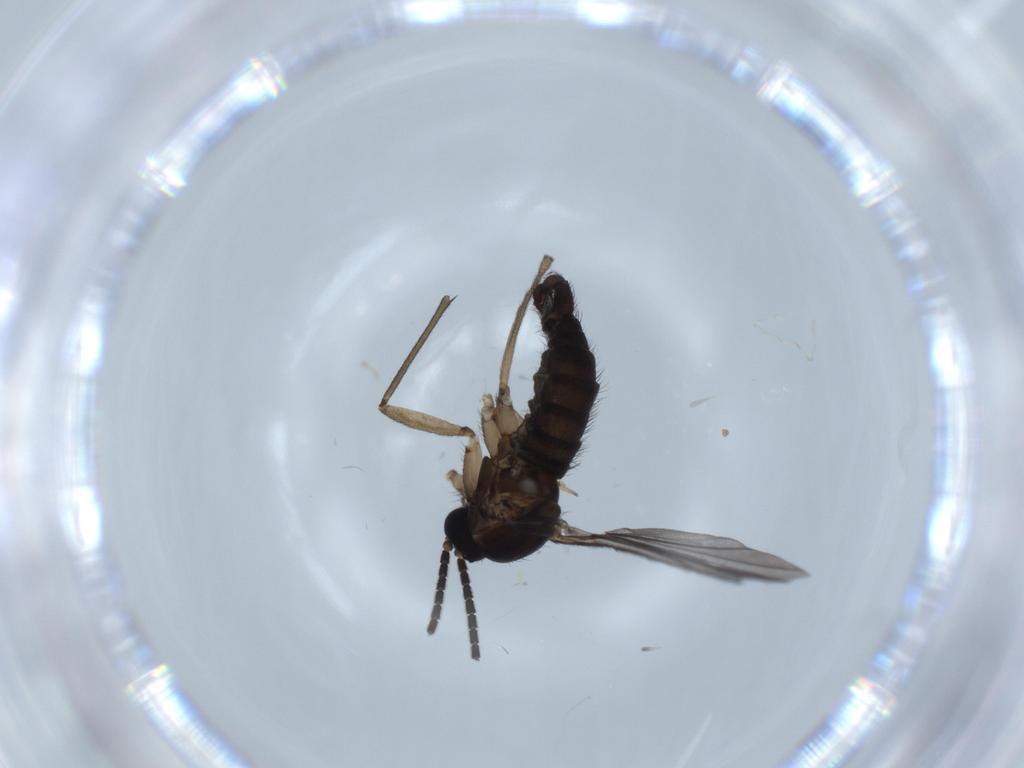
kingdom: Animalia
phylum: Arthropoda
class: Insecta
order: Diptera
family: Sciaridae
